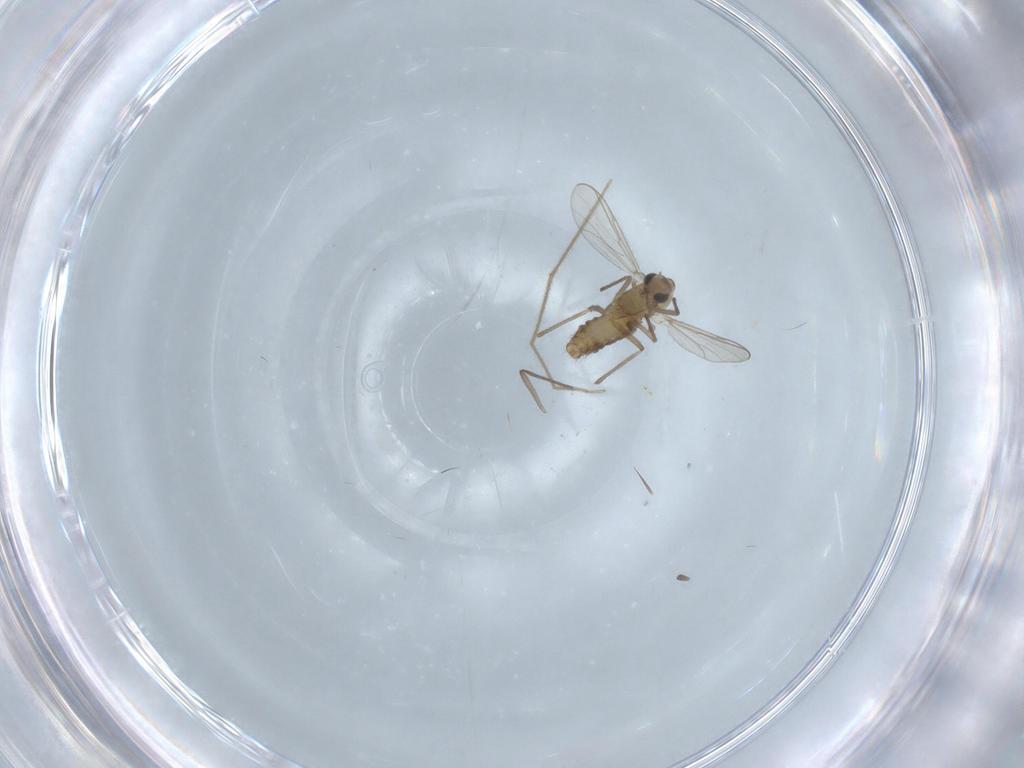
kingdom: Animalia
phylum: Arthropoda
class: Insecta
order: Diptera
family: Chironomidae
